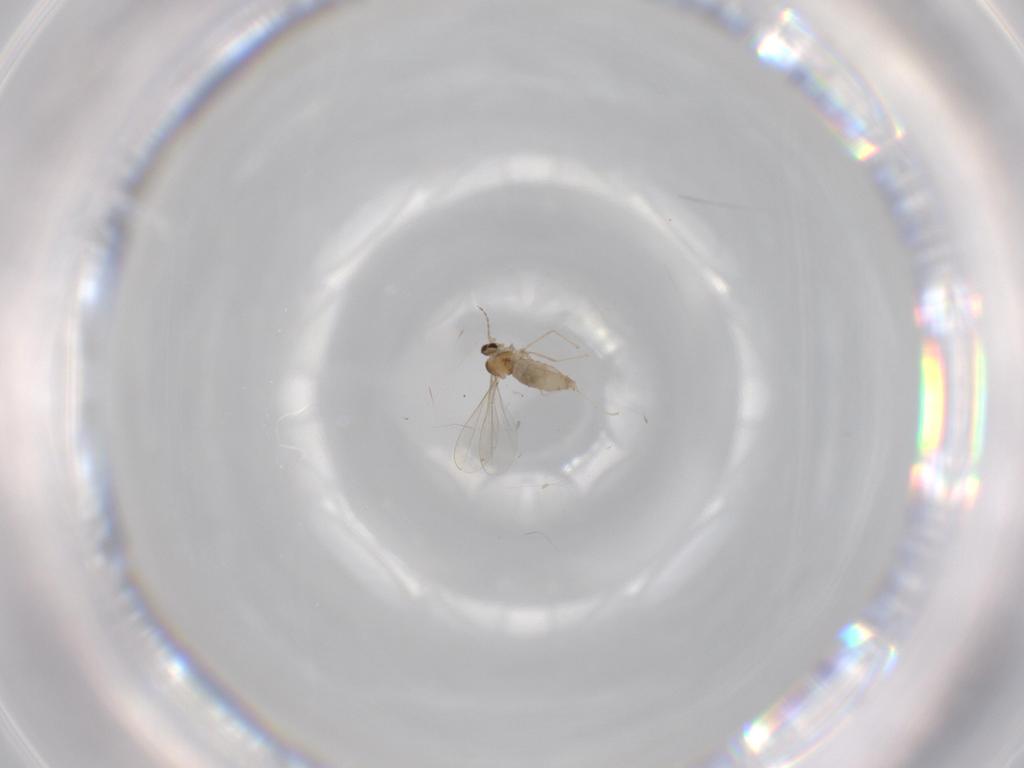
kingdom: Animalia
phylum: Arthropoda
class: Insecta
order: Diptera
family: Cecidomyiidae
